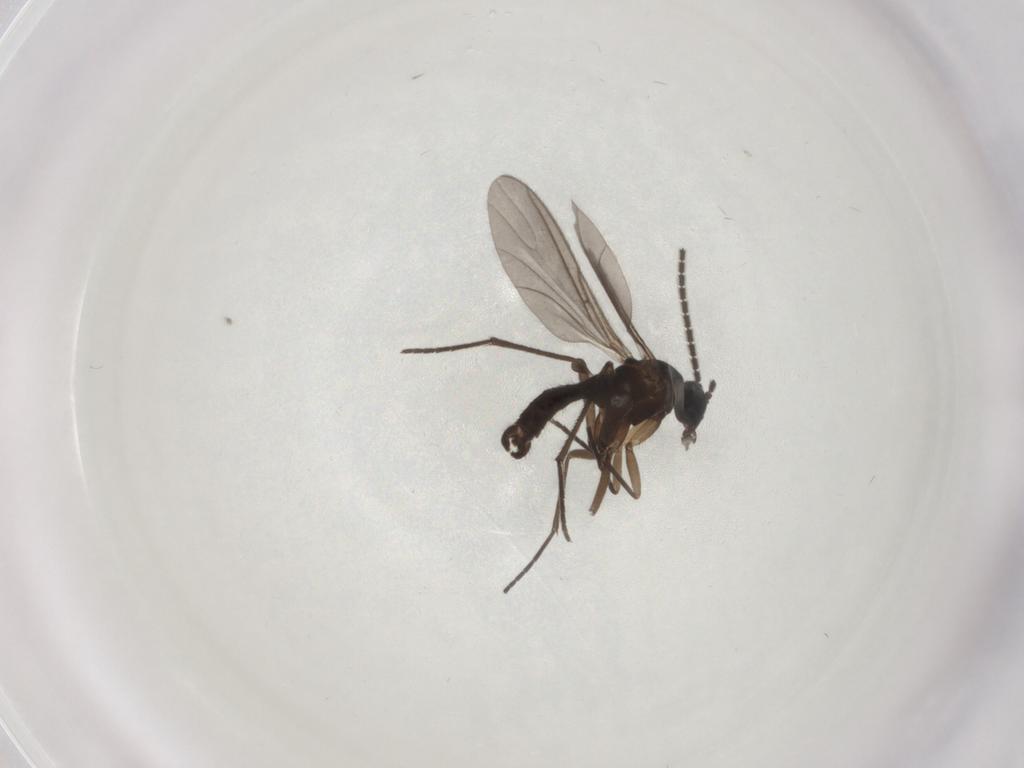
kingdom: Animalia
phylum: Arthropoda
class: Insecta
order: Diptera
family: Sciaridae
